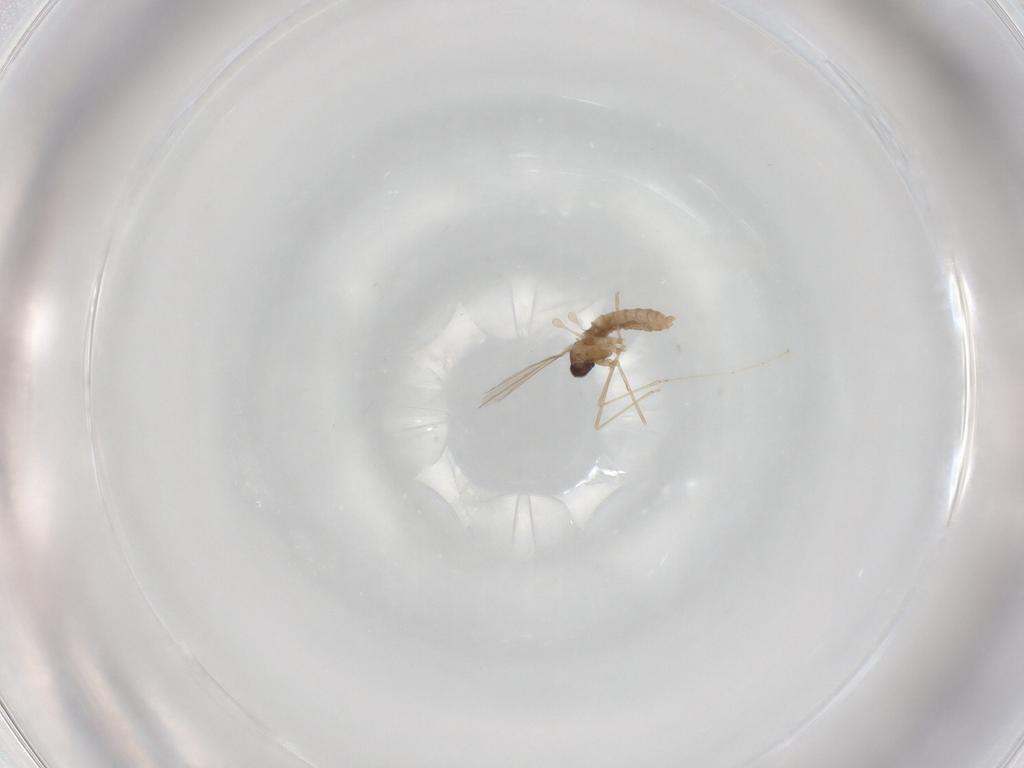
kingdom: Animalia
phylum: Arthropoda
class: Insecta
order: Diptera
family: Cecidomyiidae
